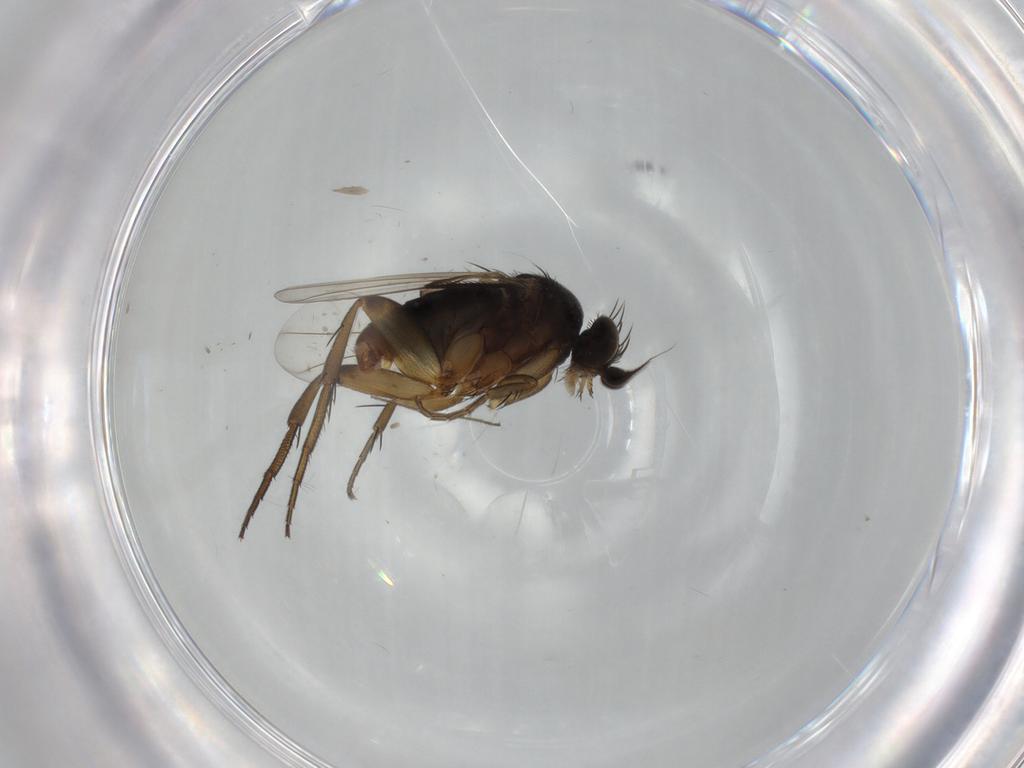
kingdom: Animalia
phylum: Arthropoda
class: Insecta
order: Diptera
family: Phoridae
